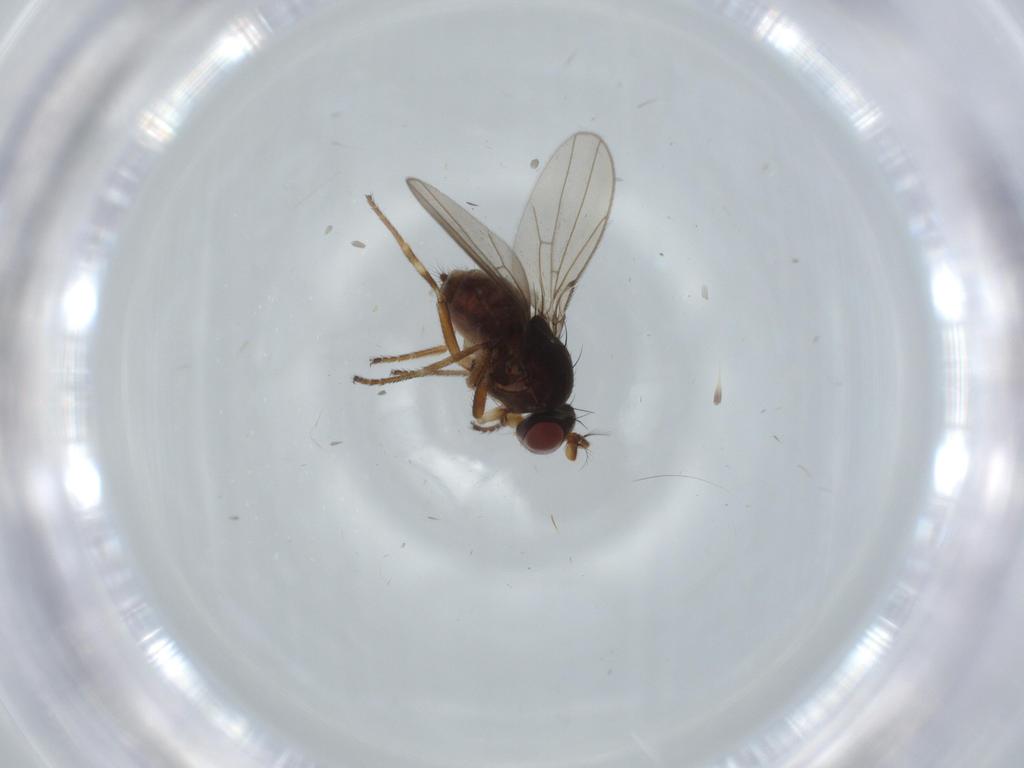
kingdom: Animalia
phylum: Arthropoda
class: Insecta
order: Diptera
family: Ephydridae
